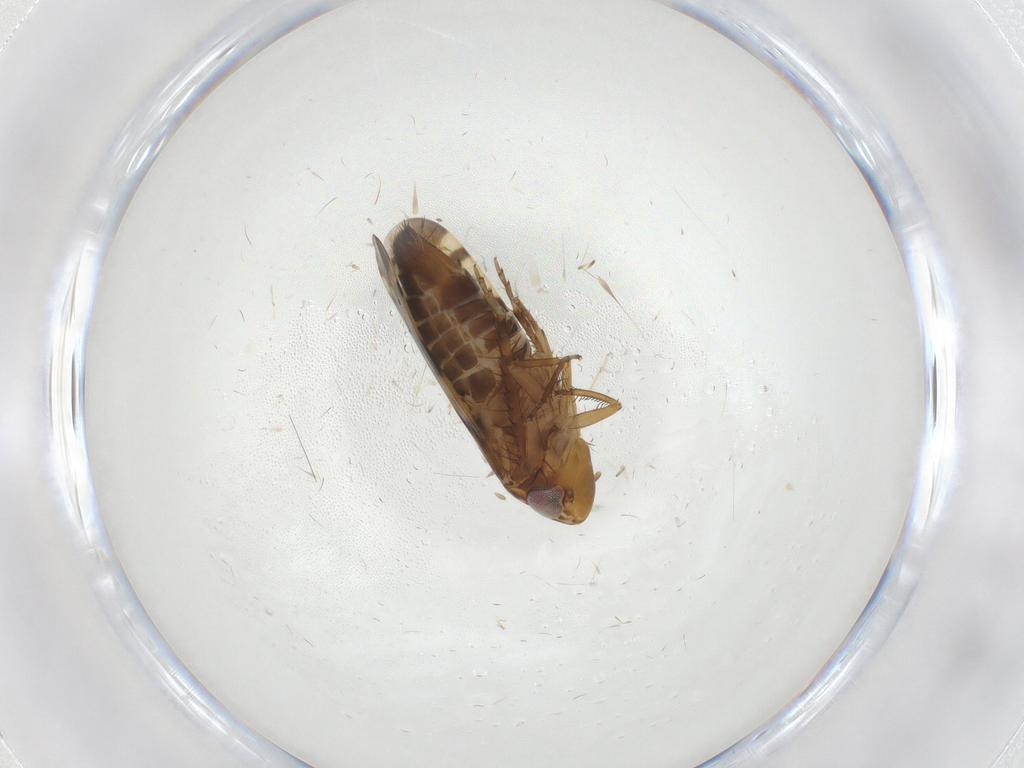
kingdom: Animalia
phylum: Arthropoda
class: Insecta
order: Hemiptera
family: Cicadellidae
